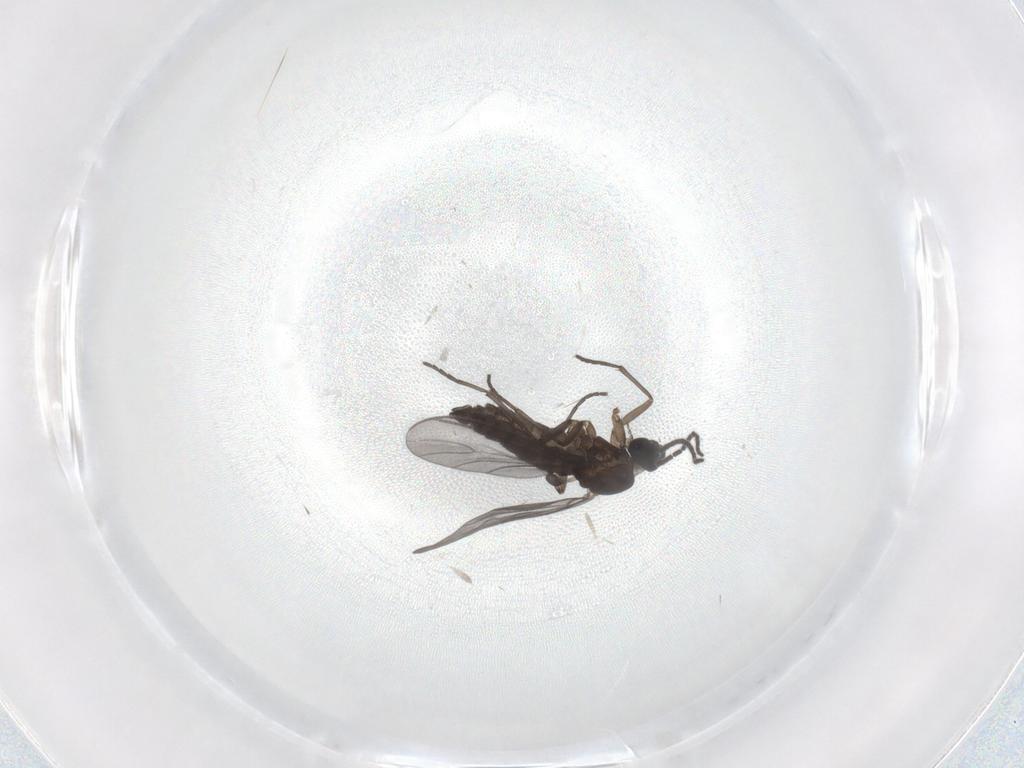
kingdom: Animalia
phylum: Arthropoda
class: Insecta
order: Diptera
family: Sciaridae
